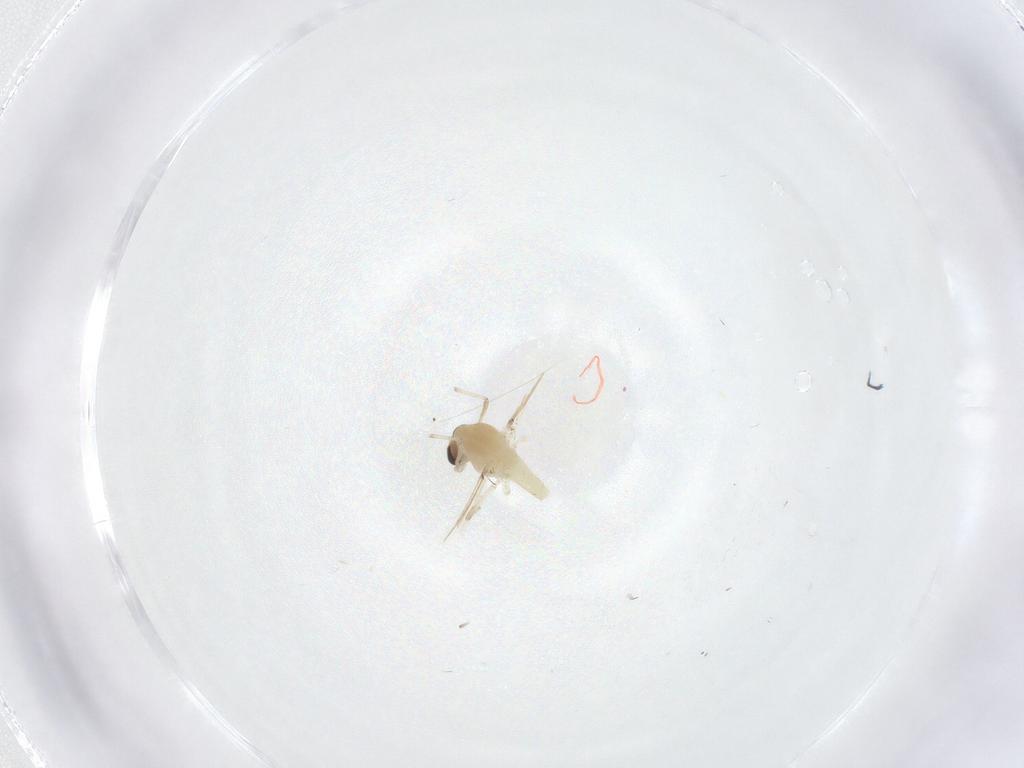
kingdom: Animalia
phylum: Arthropoda
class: Insecta
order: Diptera
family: Chironomidae
